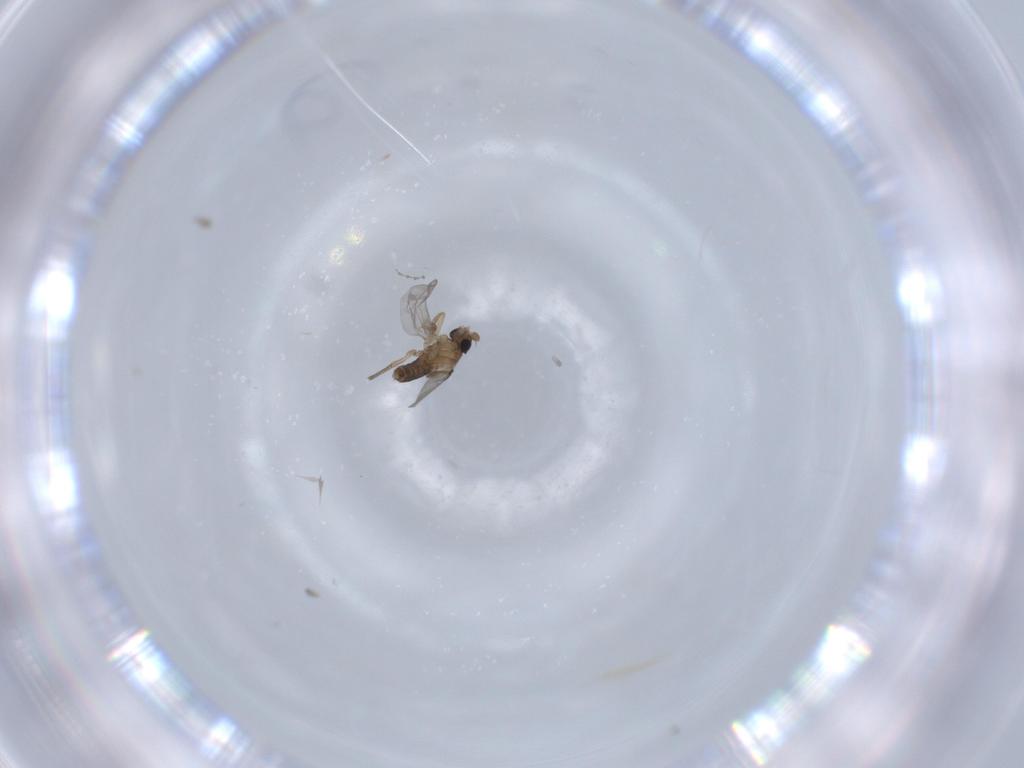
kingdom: Animalia
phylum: Arthropoda
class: Insecta
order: Diptera
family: Phoridae
